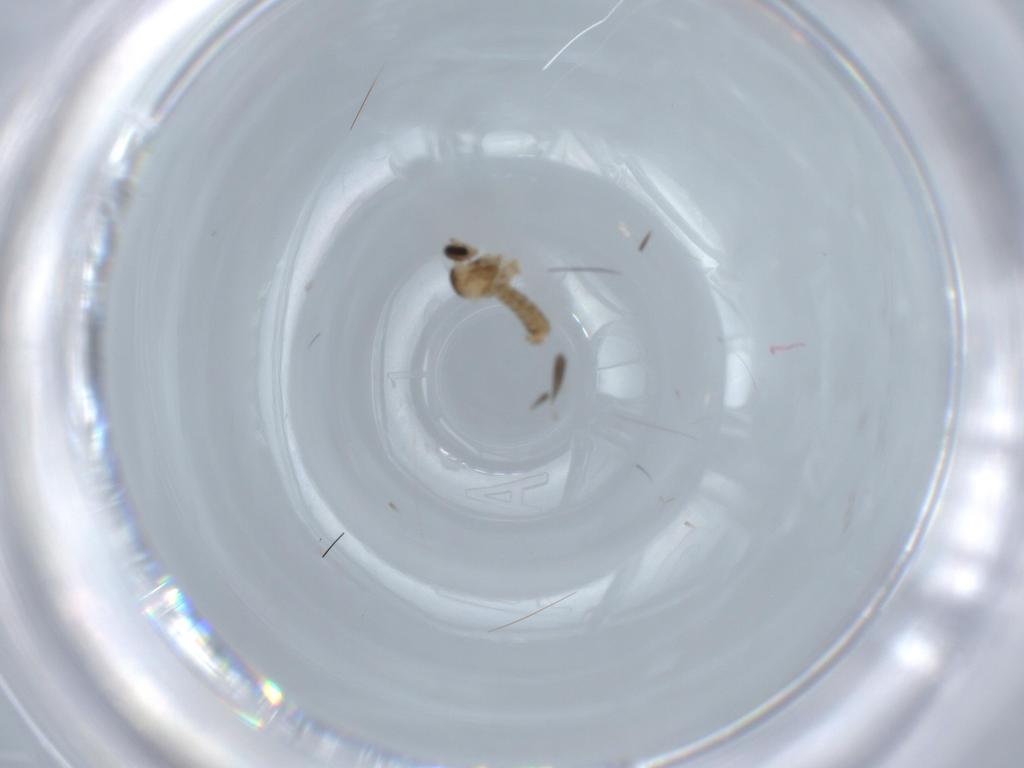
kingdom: Animalia
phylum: Arthropoda
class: Insecta
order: Diptera
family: Cecidomyiidae
